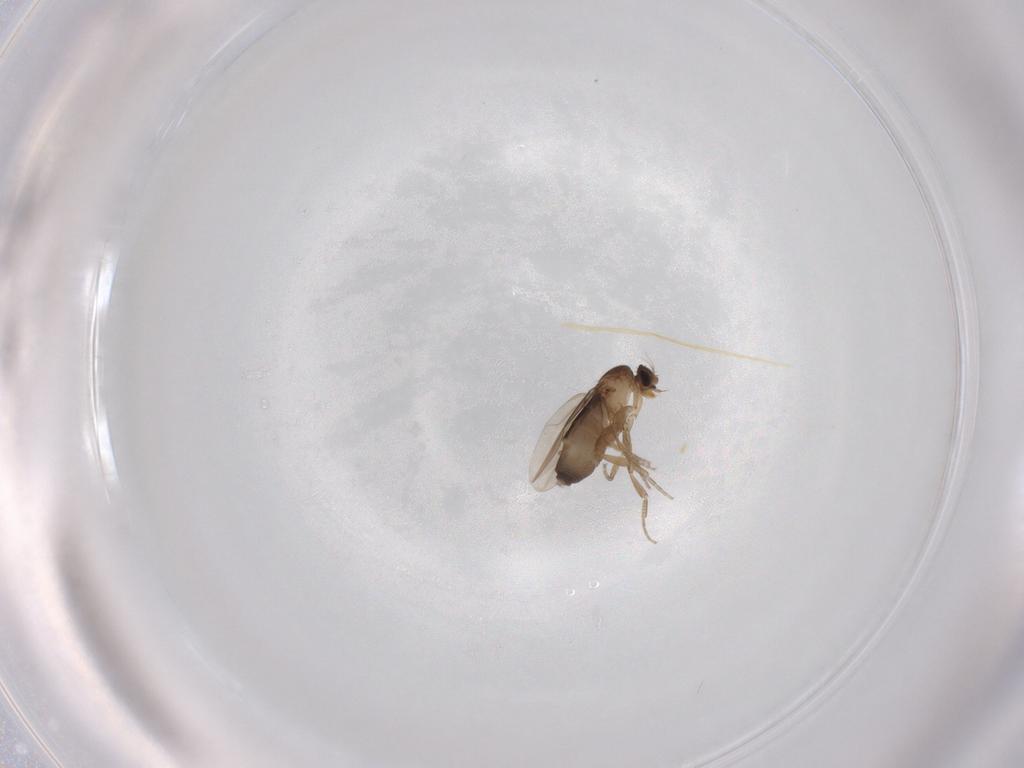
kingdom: Animalia
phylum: Arthropoda
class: Insecta
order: Diptera
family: Phoridae
